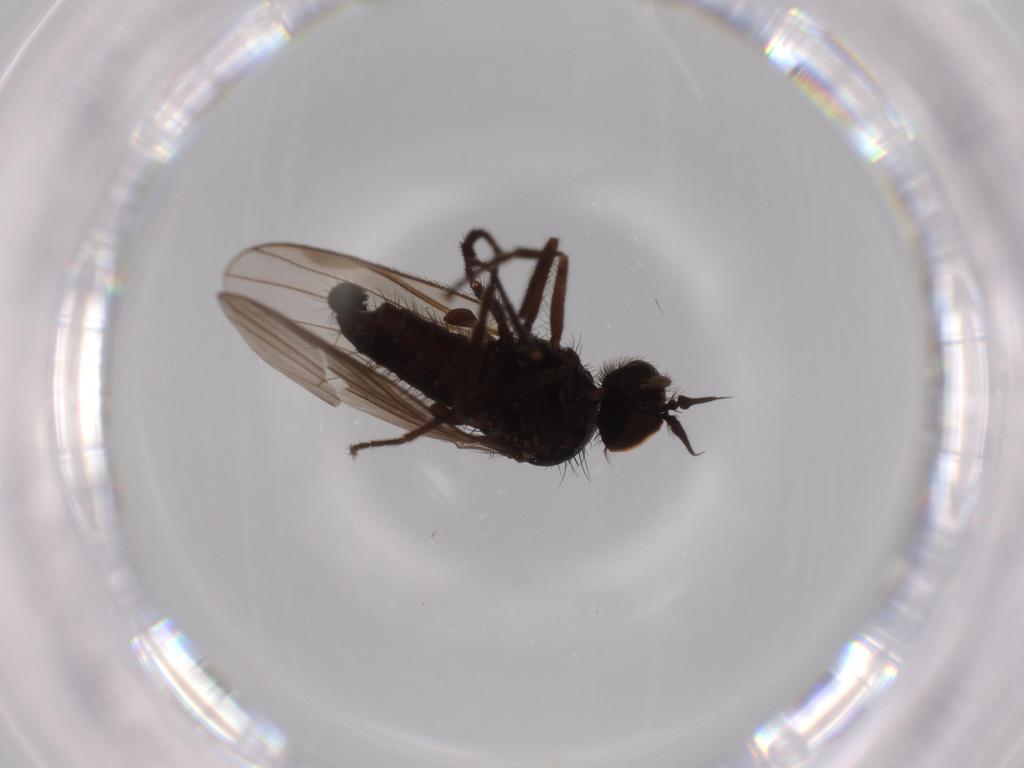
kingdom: Animalia
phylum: Arthropoda
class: Insecta
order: Diptera
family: Dolichopodidae
